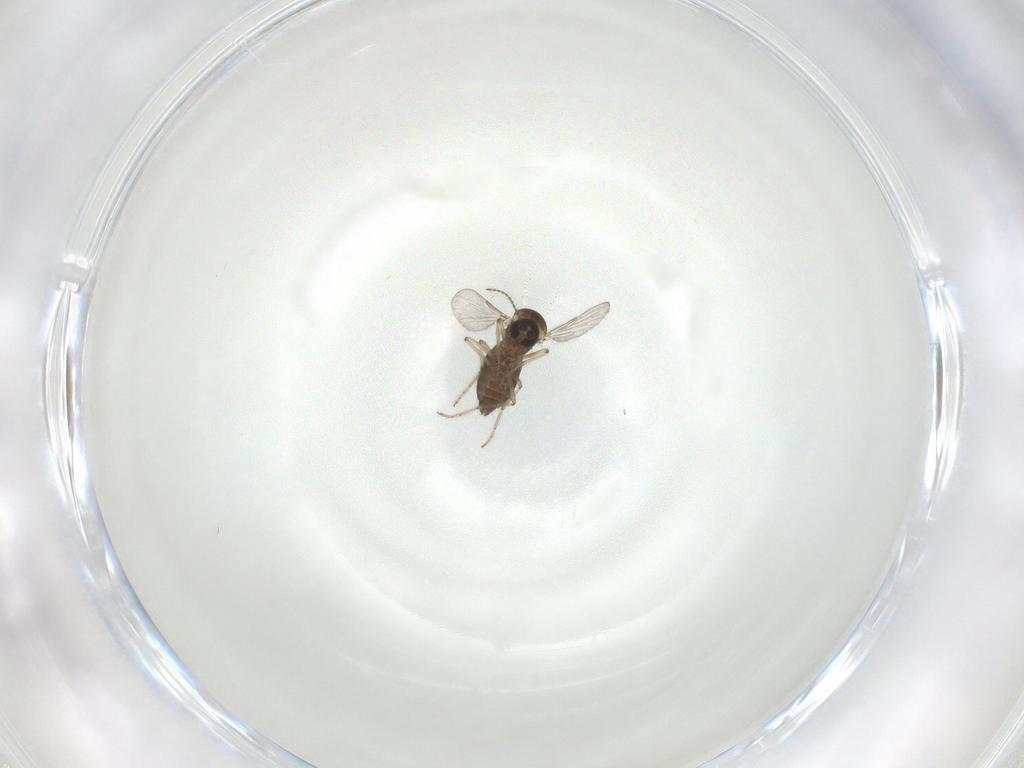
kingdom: Animalia
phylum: Arthropoda
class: Insecta
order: Diptera
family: Ceratopogonidae
